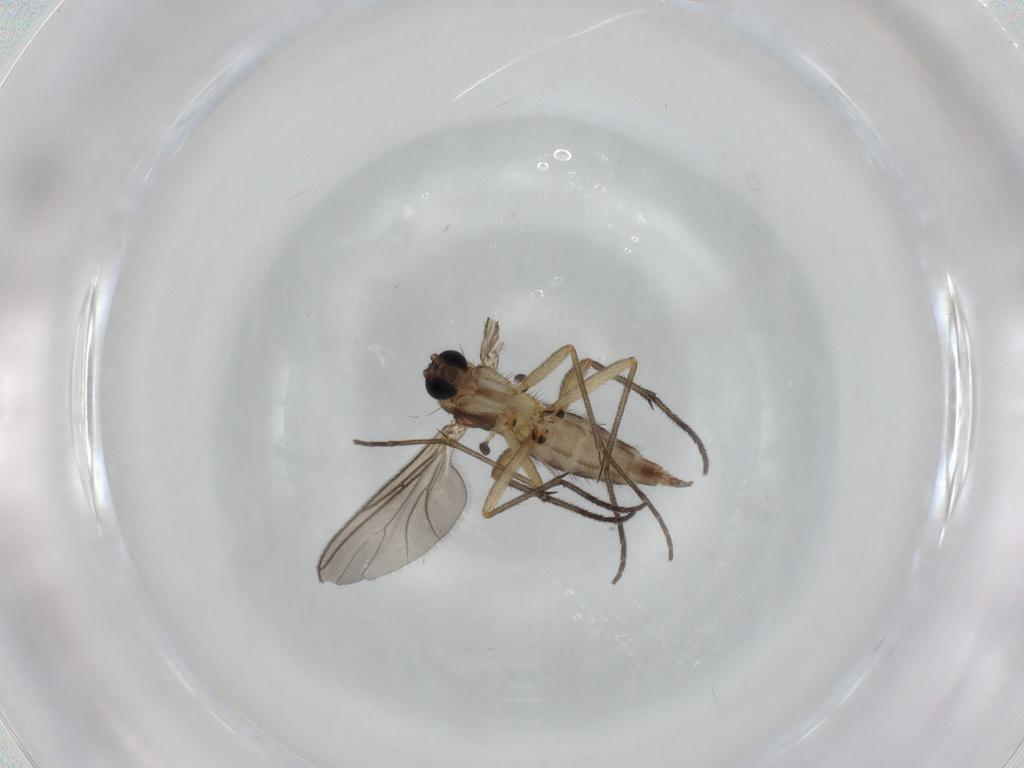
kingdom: Animalia
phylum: Arthropoda
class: Insecta
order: Diptera
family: Sciaridae
